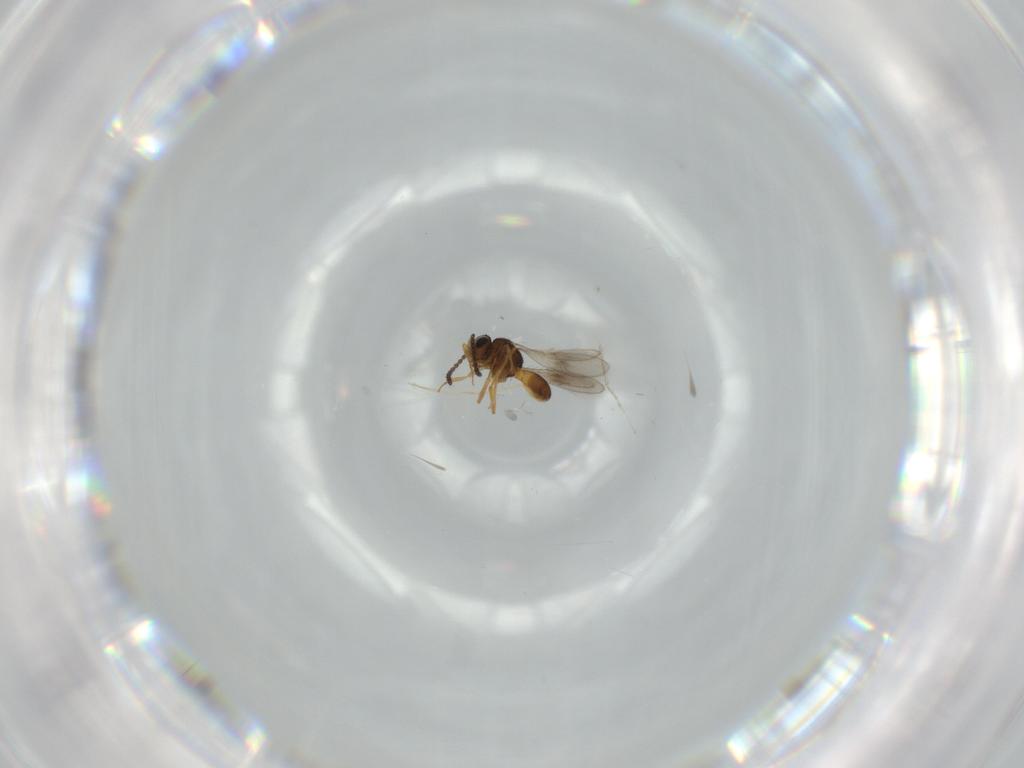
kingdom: Animalia
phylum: Arthropoda
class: Insecta
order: Hymenoptera
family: Scelionidae
